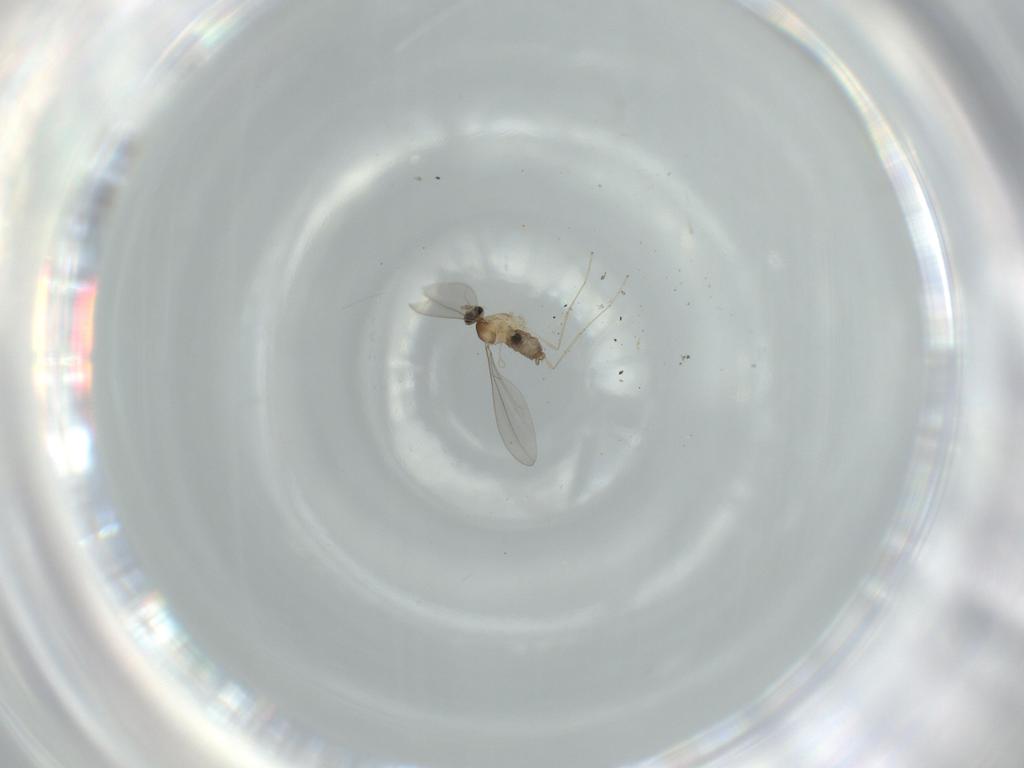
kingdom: Animalia
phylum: Arthropoda
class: Insecta
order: Diptera
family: Cecidomyiidae
